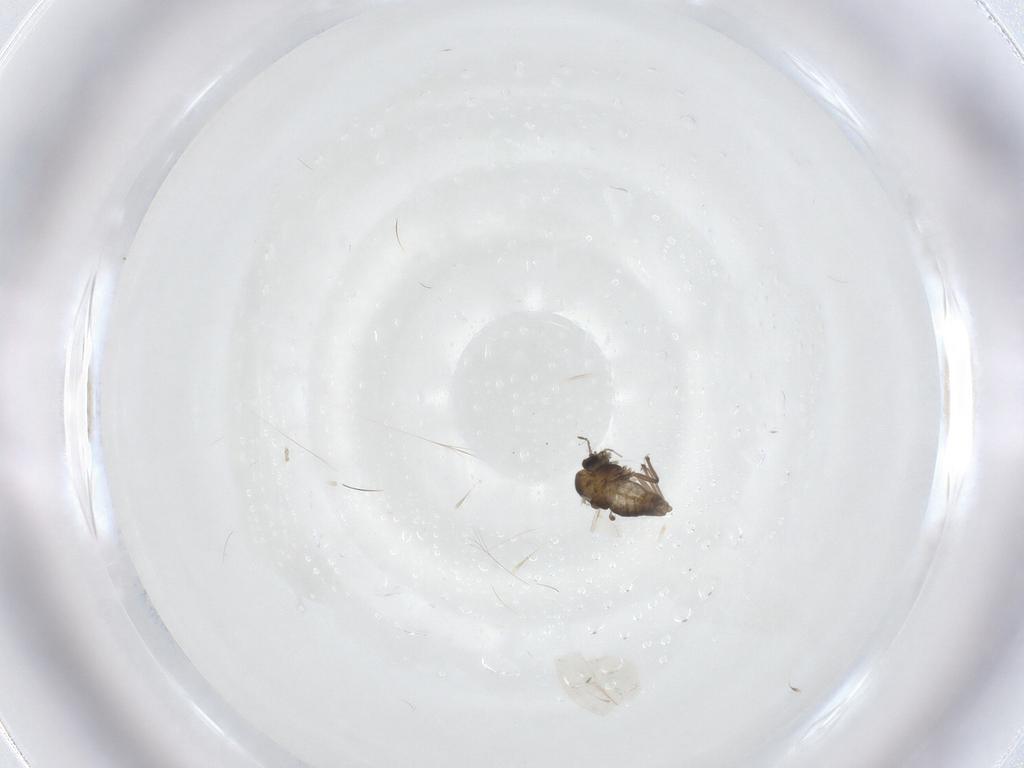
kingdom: Animalia
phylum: Arthropoda
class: Insecta
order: Diptera
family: Chironomidae
